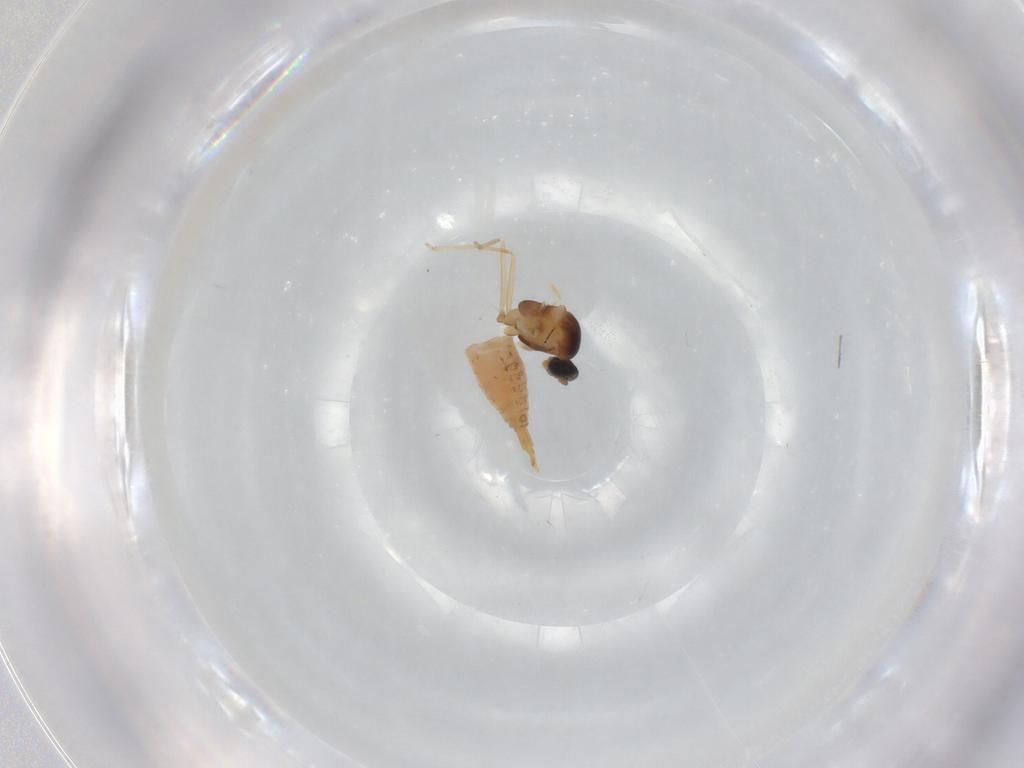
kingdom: Animalia
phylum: Arthropoda
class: Insecta
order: Diptera
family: Cecidomyiidae
